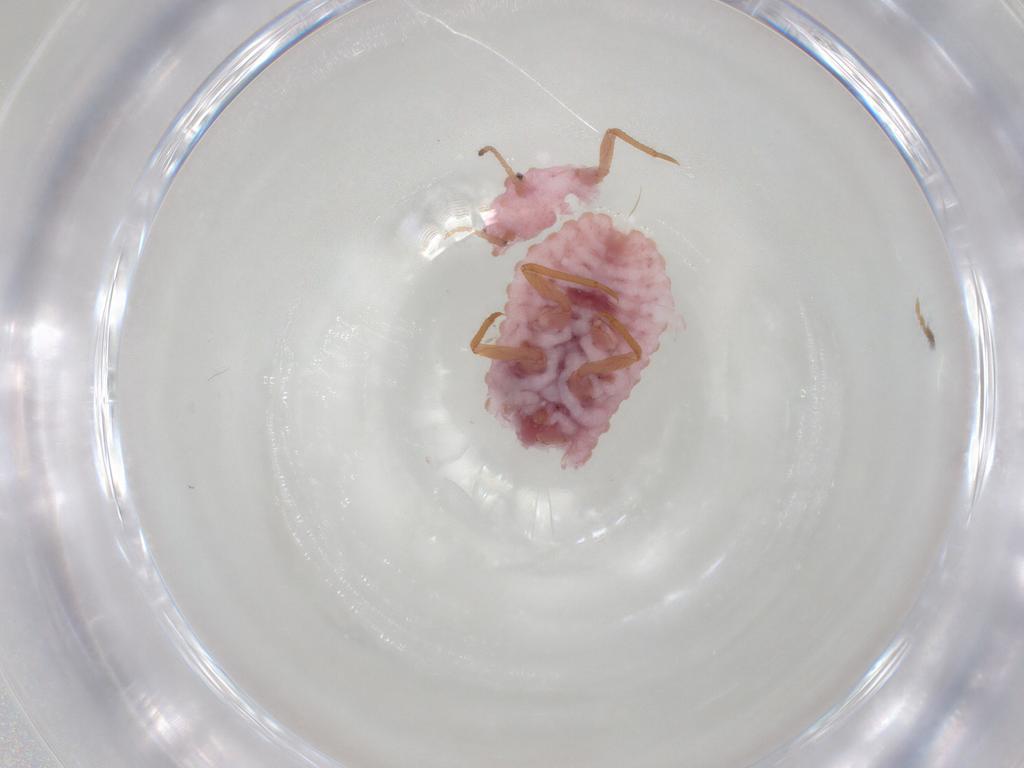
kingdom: Animalia
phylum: Arthropoda
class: Insecta
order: Hemiptera
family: Coccoidea_incertae_sedis
